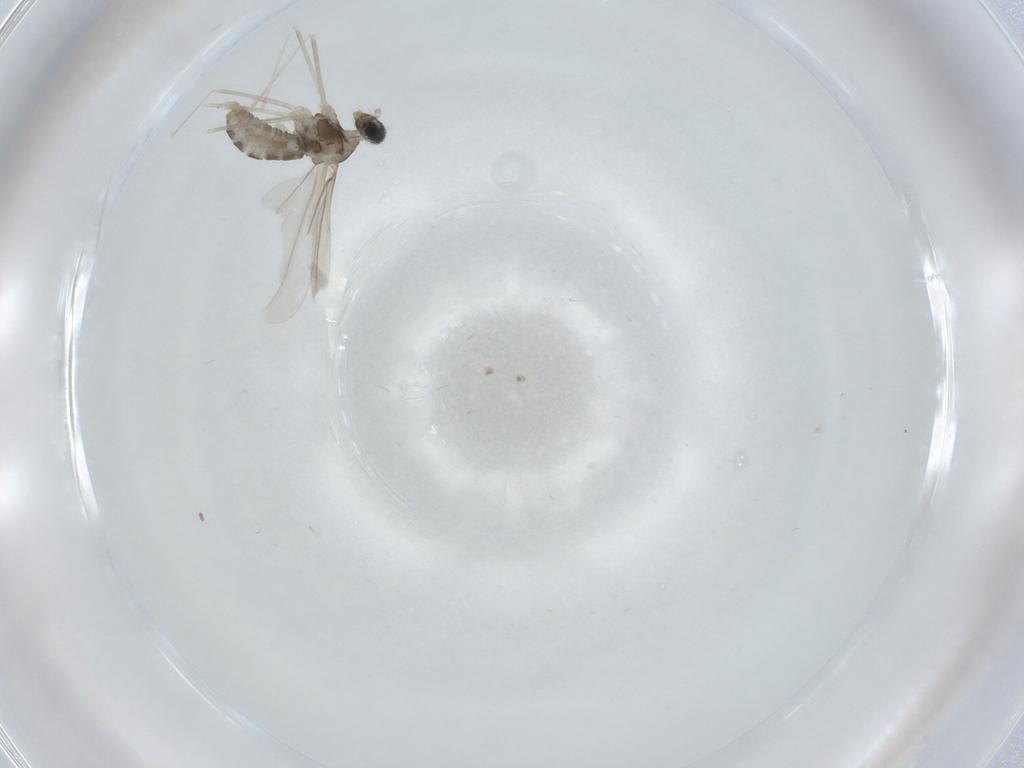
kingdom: Animalia
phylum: Arthropoda
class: Insecta
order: Diptera
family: Cecidomyiidae
